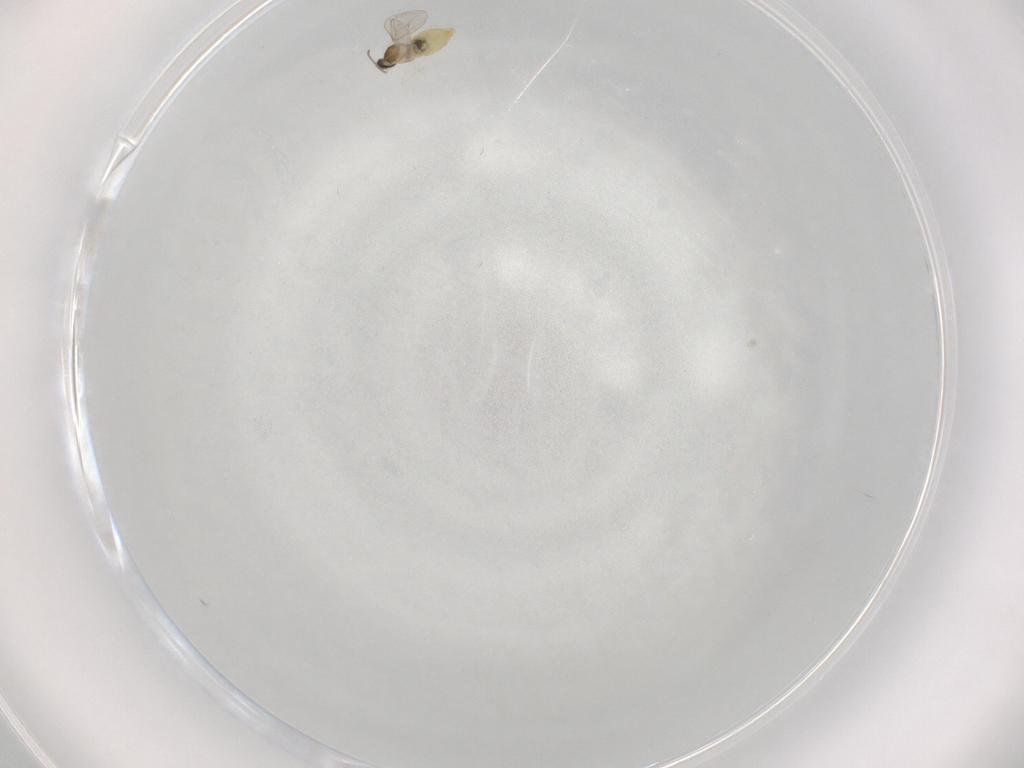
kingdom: Animalia
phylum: Arthropoda
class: Insecta
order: Diptera
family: Cecidomyiidae
